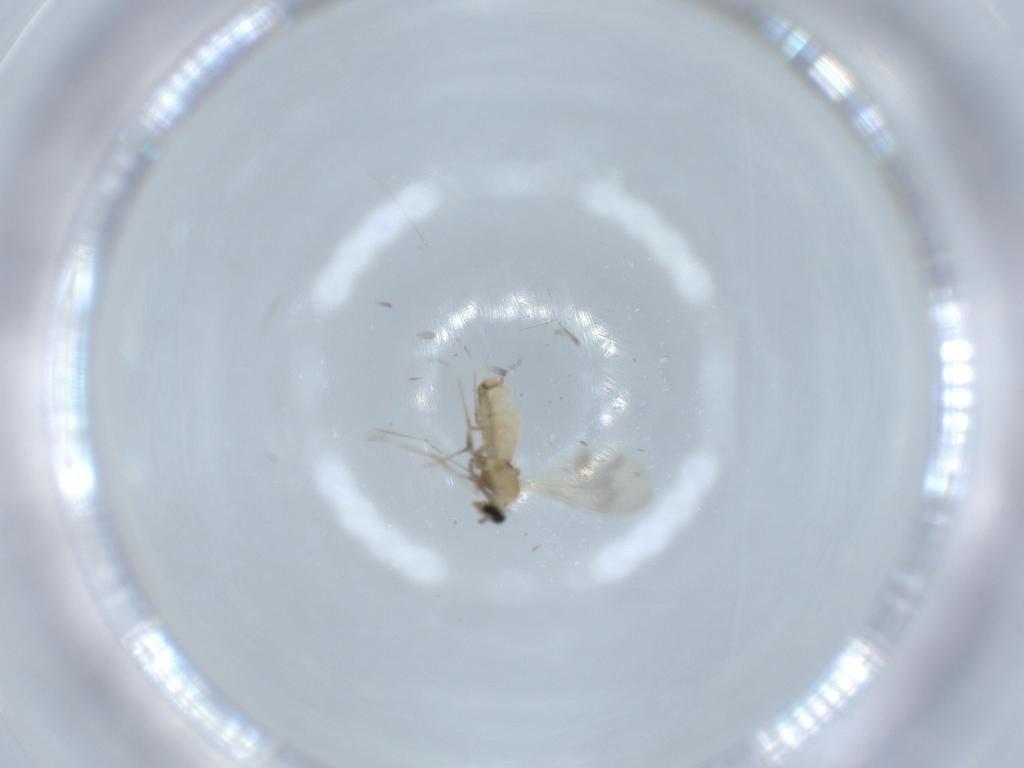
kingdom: Animalia
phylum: Arthropoda
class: Insecta
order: Diptera
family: Cecidomyiidae
